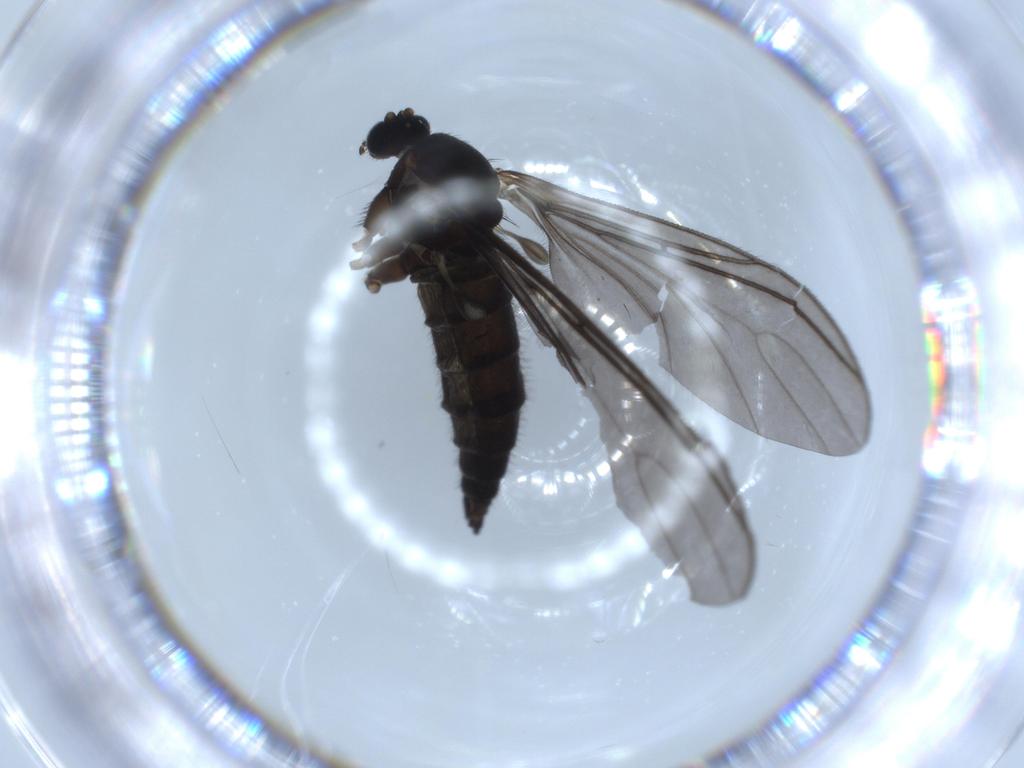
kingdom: Animalia
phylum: Arthropoda
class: Insecta
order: Diptera
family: Sciaridae
